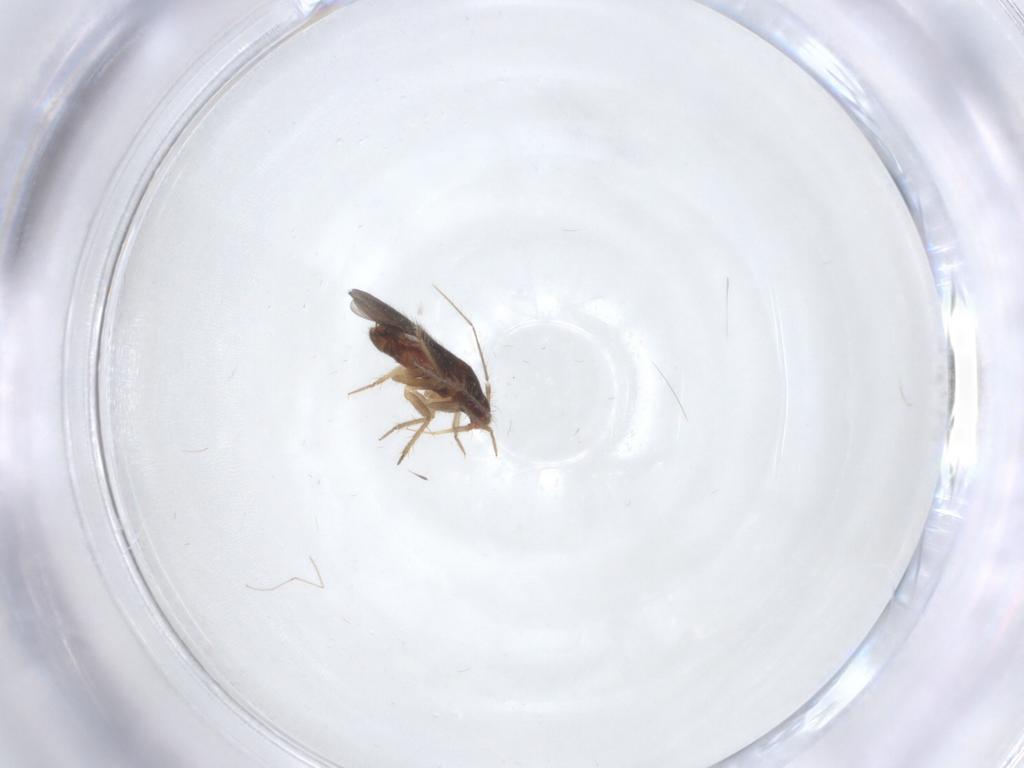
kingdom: Animalia
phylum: Arthropoda
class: Insecta
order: Hemiptera
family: Ceratocombidae
